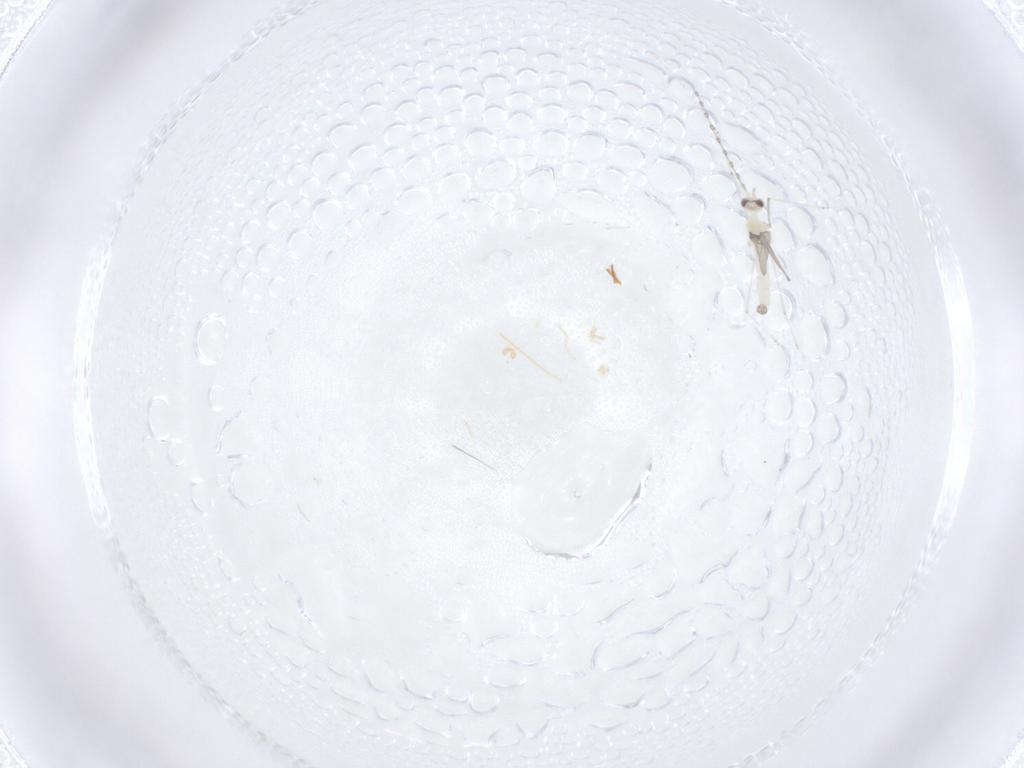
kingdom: Animalia
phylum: Arthropoda
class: Insecta
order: Diptera
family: Cecidomyiidae
